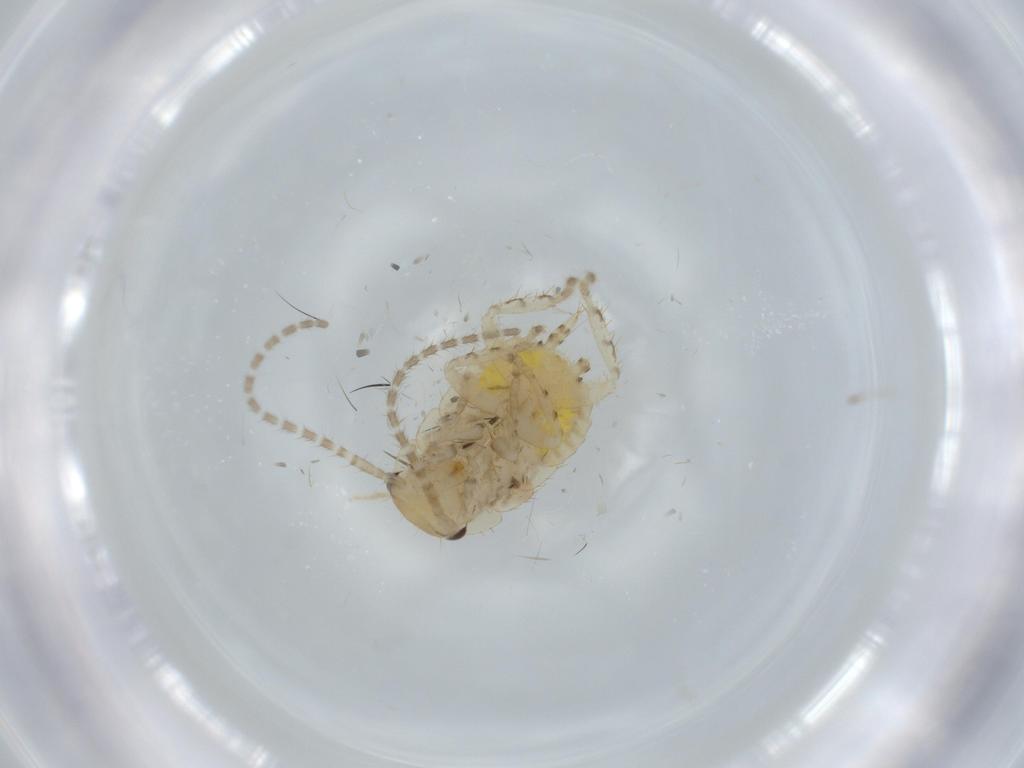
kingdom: Animalia
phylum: Arthropoda
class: Insecta
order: Blattodea
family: Ectobiidae
